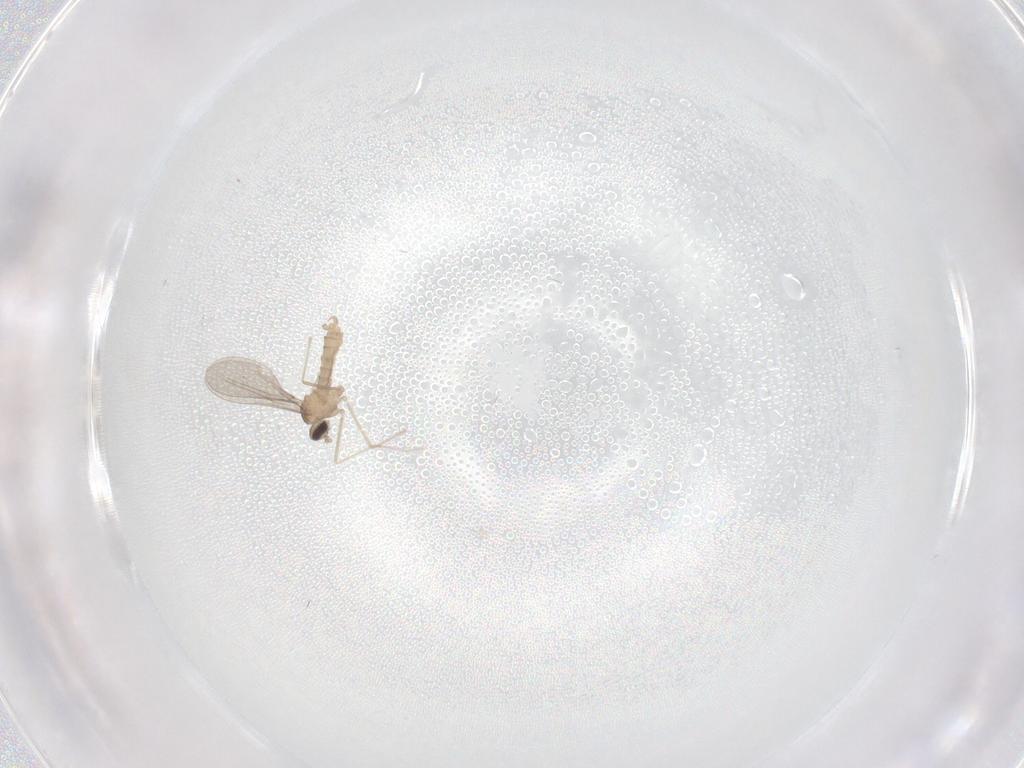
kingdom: Animalia
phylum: Arthropoda
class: Insecta
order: Diptera
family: Cecidomyiidae
